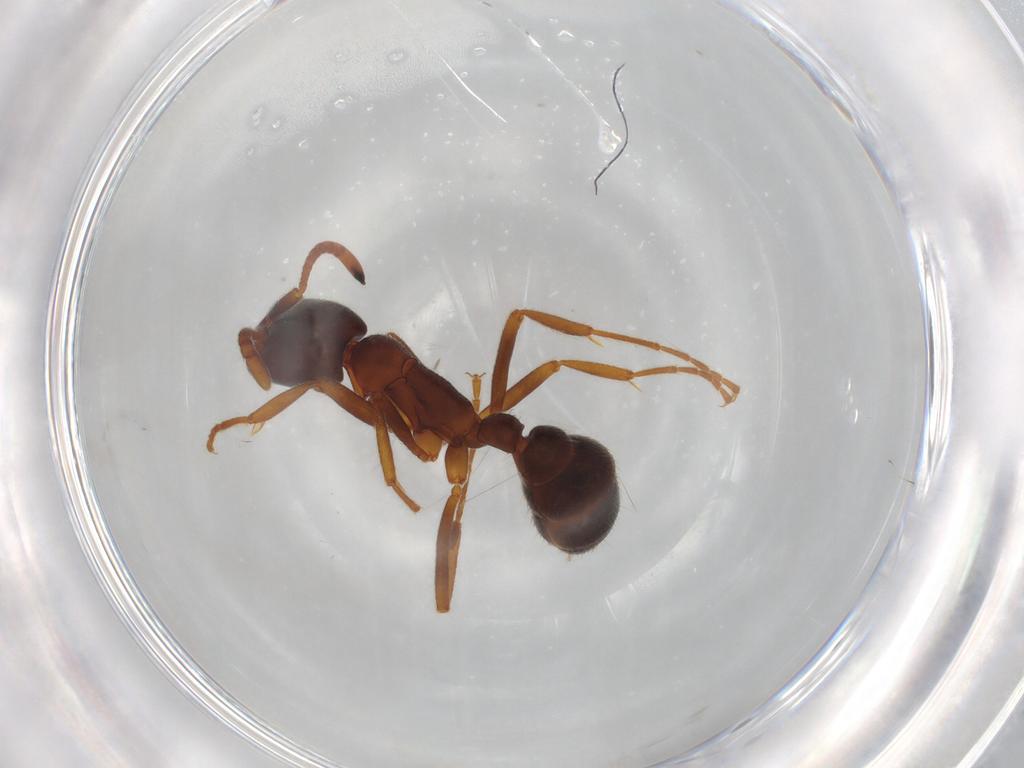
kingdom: Animalia
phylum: Arthropoda
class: Insecta
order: Hymenoptera
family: Formicidae
